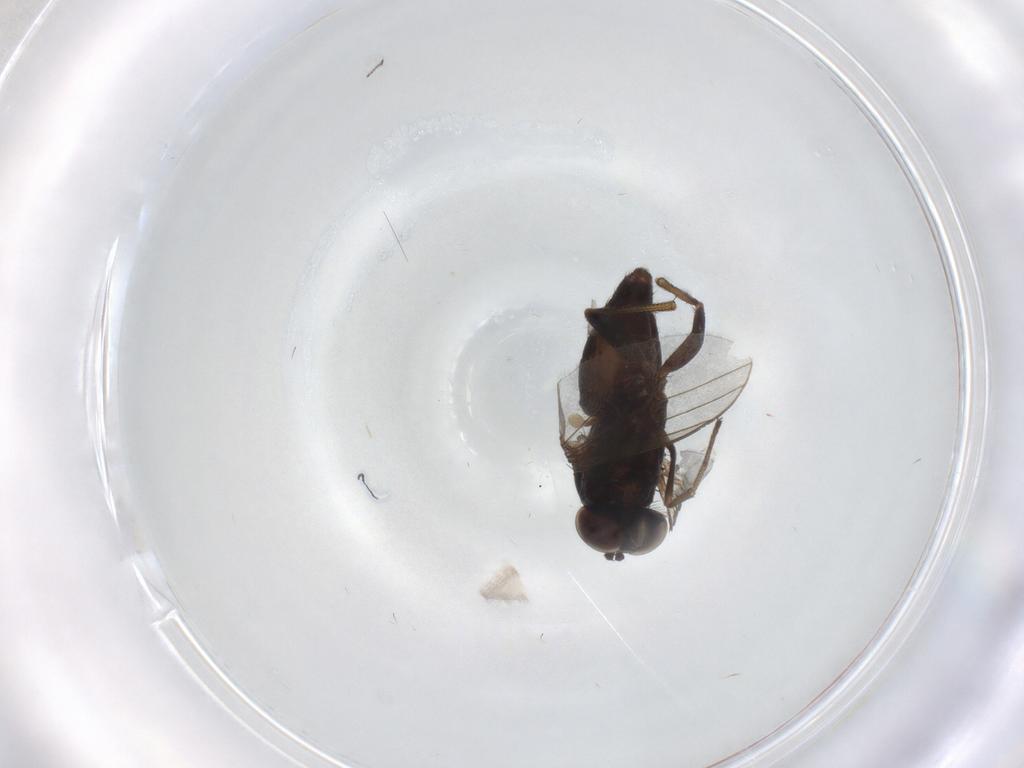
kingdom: Animalia
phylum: Arthropoda
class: Insecta
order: Diptera
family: Dolichopodidae
